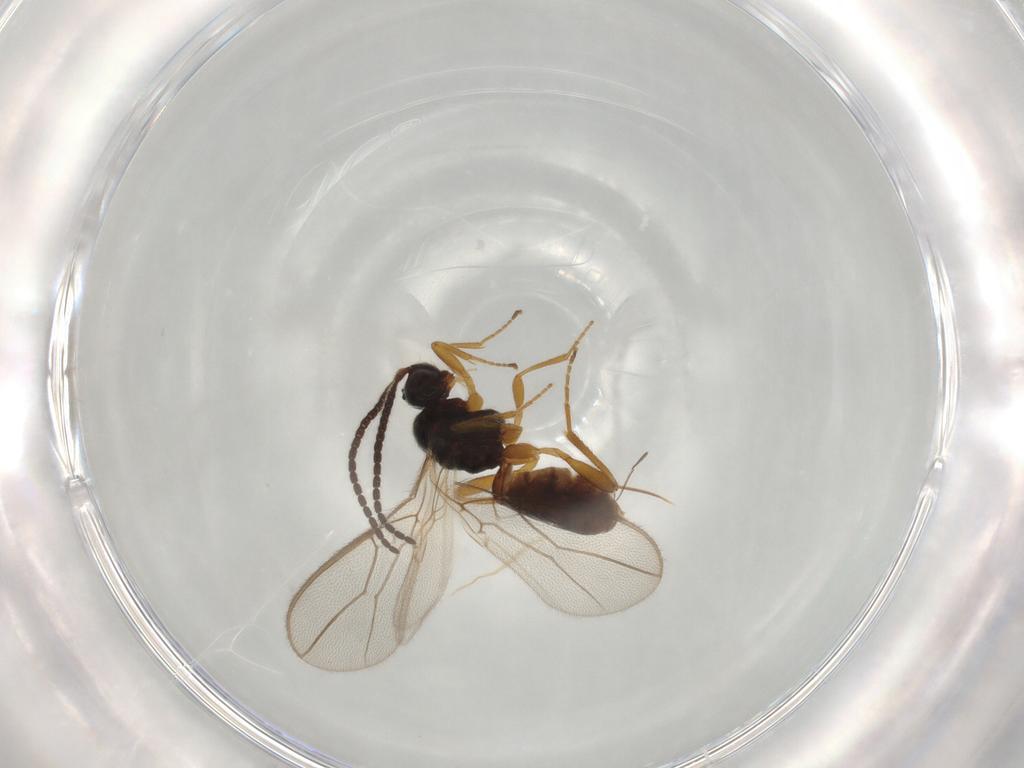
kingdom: Animalia
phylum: Arthropoda
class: Insecta
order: Hymenoptera
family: Braconidae
